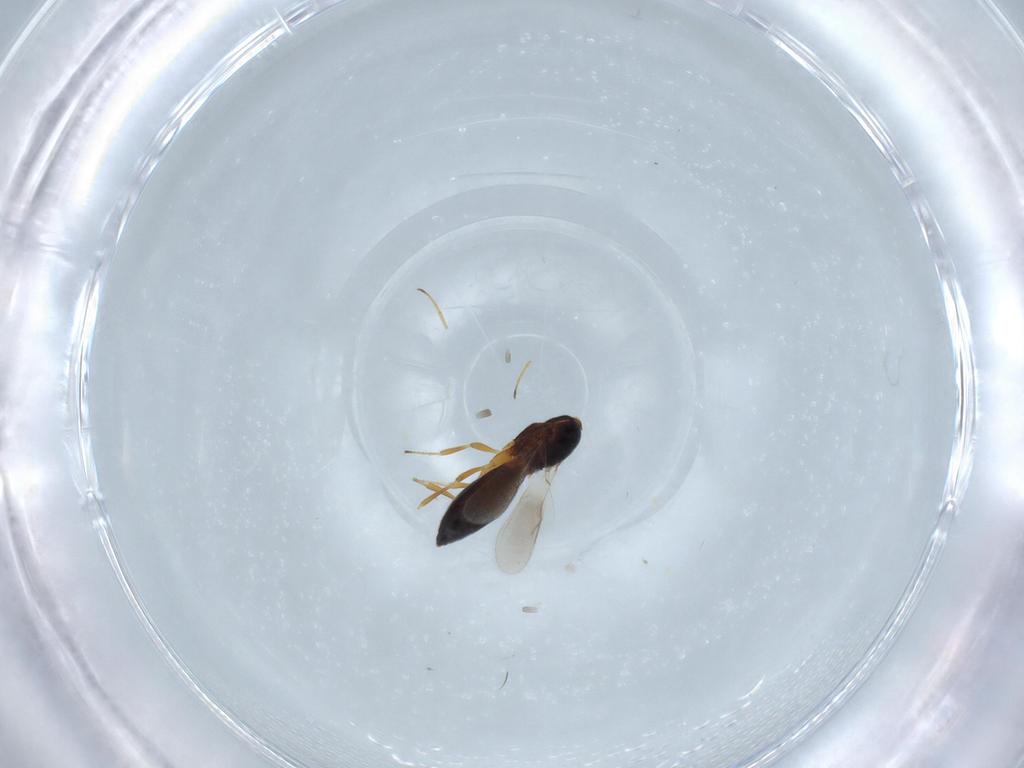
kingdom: Animalia
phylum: Arthropoda
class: Insecta
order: Hymenoptera
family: Scelionidae
